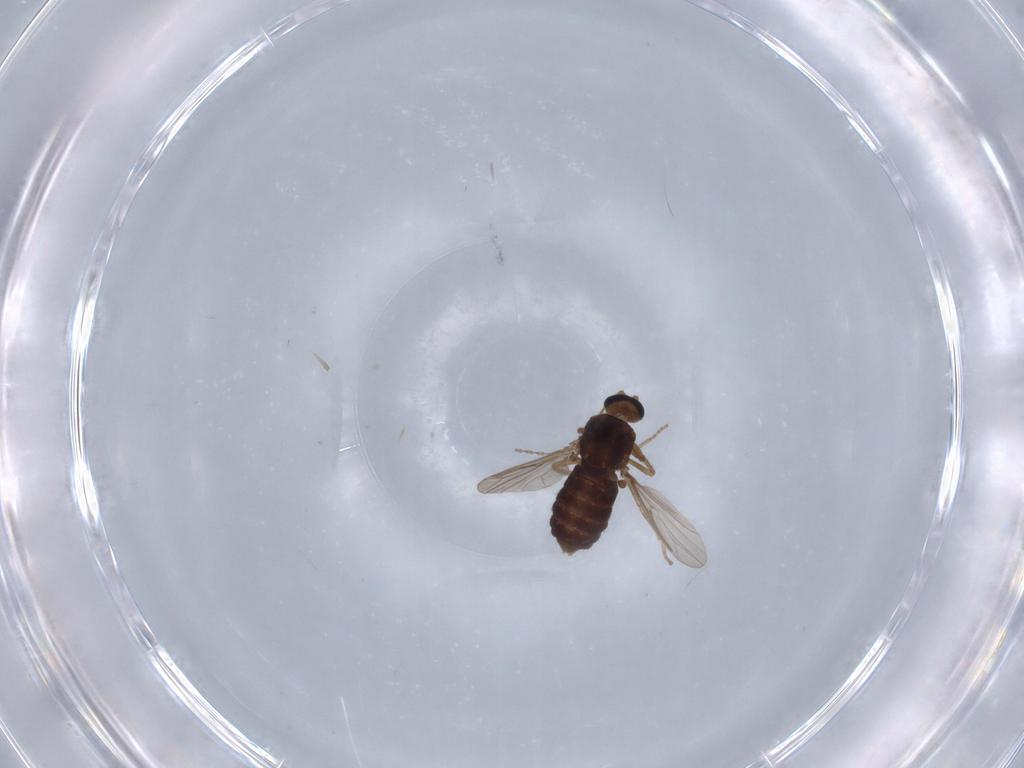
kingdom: Animalia
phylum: Arthropoda
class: Insecta
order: Diptera
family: Ceratopogonidae
